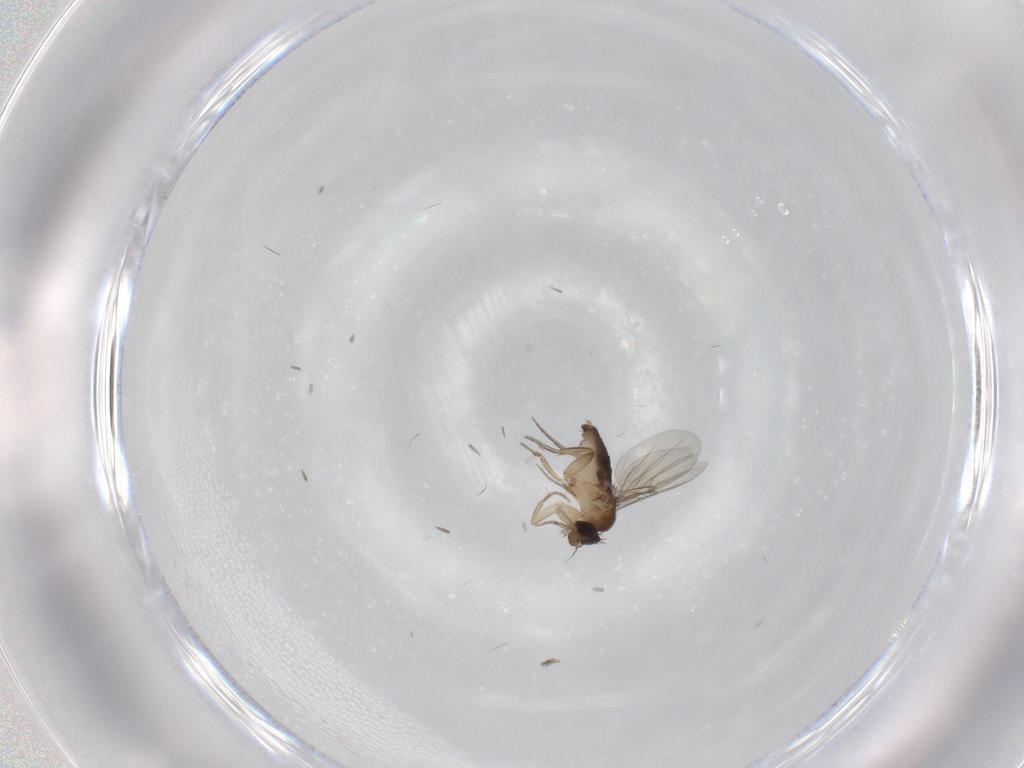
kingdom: Animalia
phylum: Arthropoda
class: Insecta
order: Diptera
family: Phoridae
